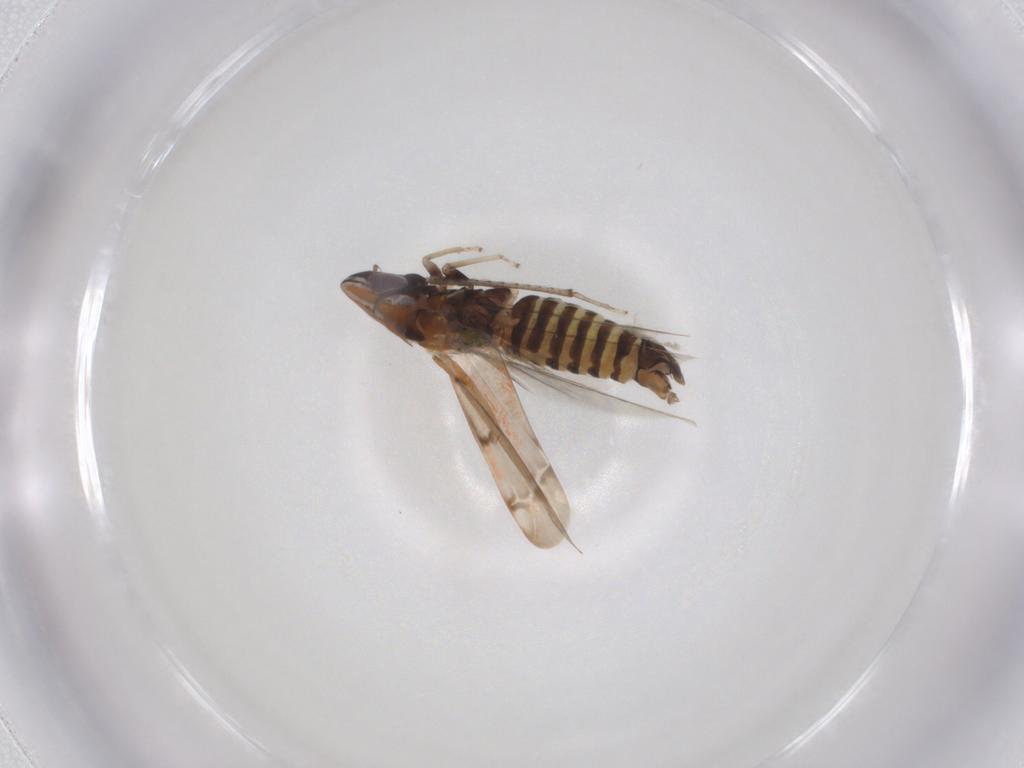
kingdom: Animalia
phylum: Arthropoda
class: Insecta
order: Hemiptera
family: Cicadellidae
